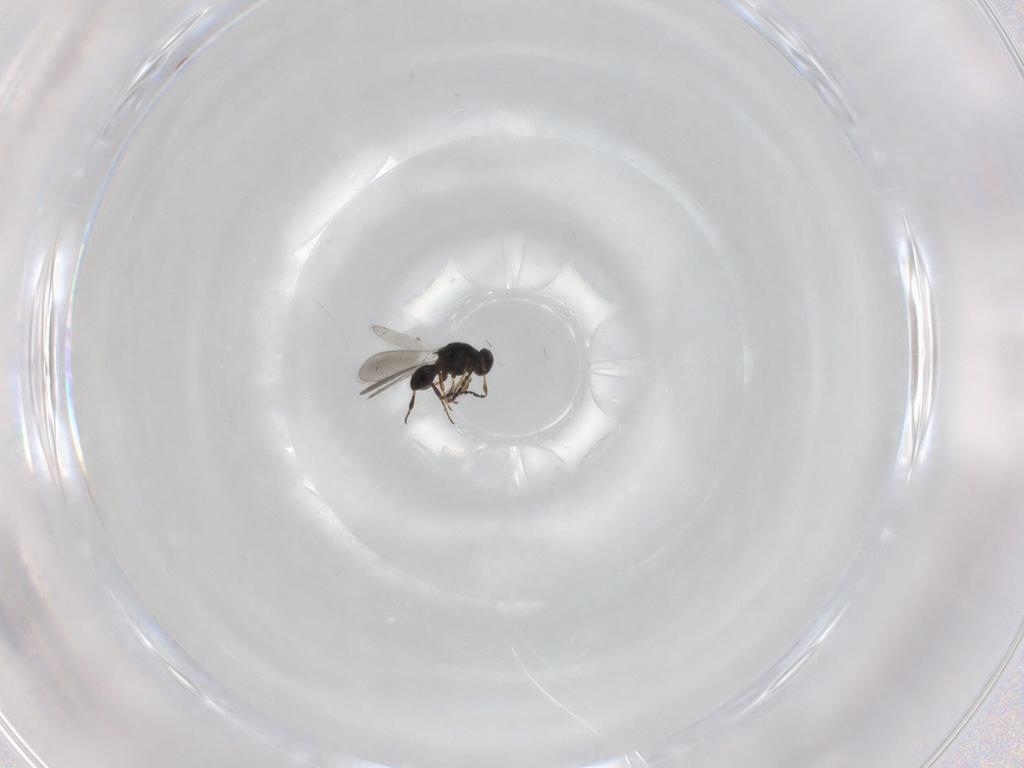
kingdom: Animalia
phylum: Arthropoda
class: Insecta
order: Hymenoptera
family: Platygastridae
